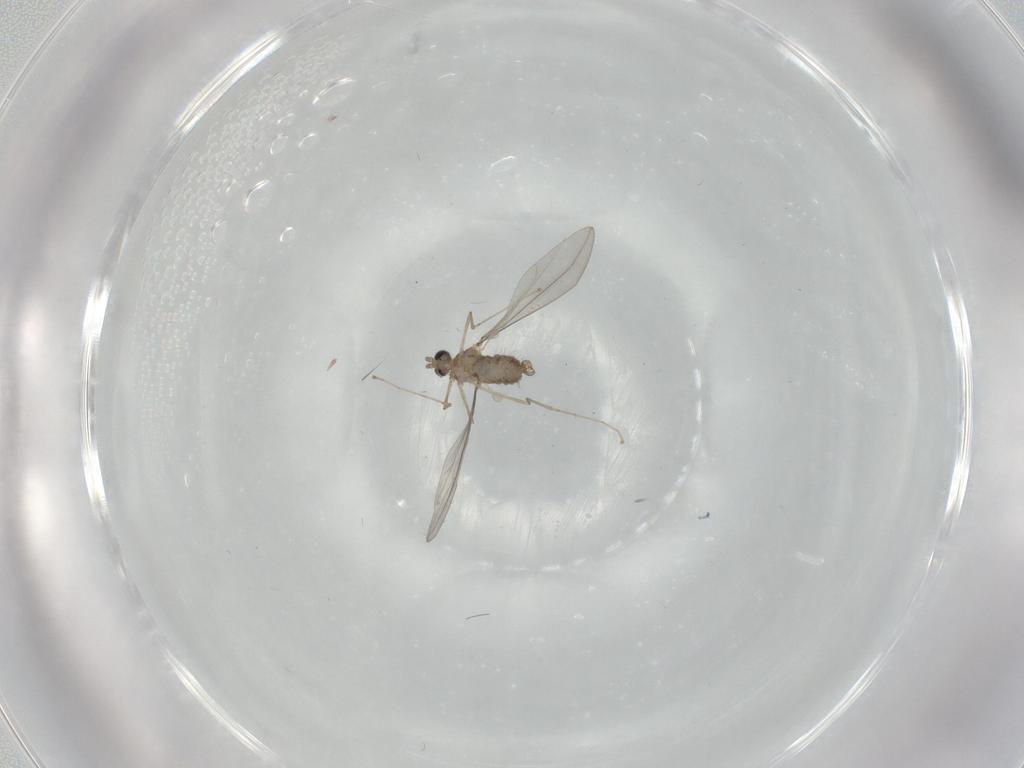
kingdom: Animalia
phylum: Arthropoda
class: Insecta
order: Diptera
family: Cecidomyiidae
